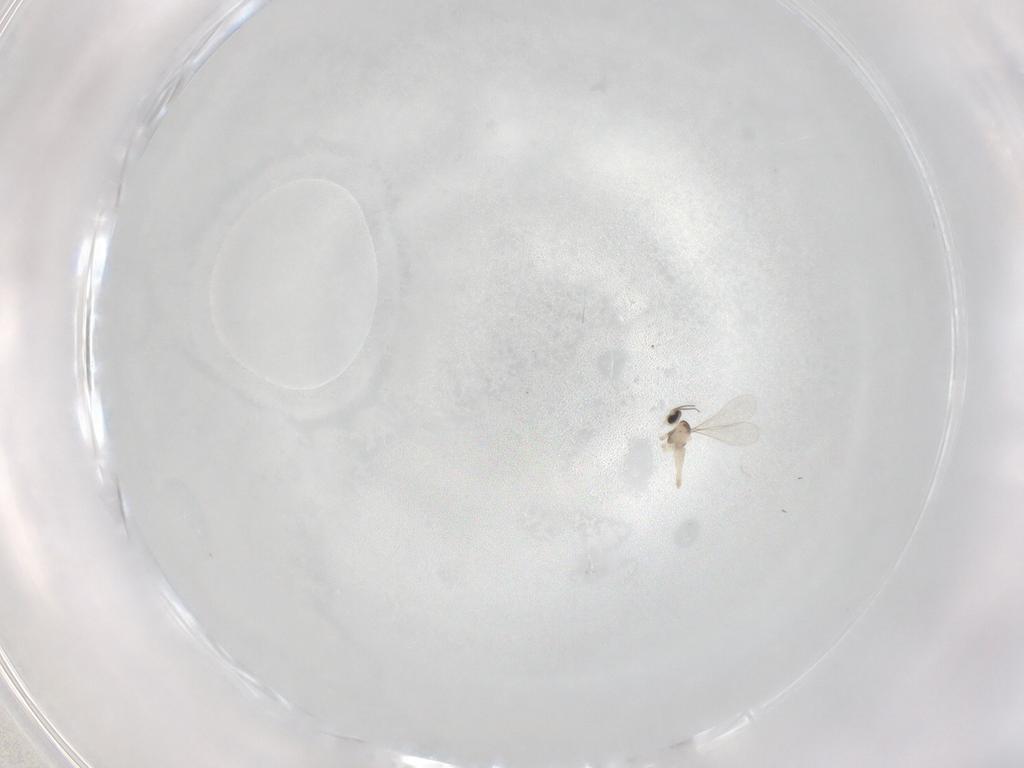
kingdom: Animalia
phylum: Arthropoda
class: Insecta
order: Diptera
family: Cecidomyiidae
